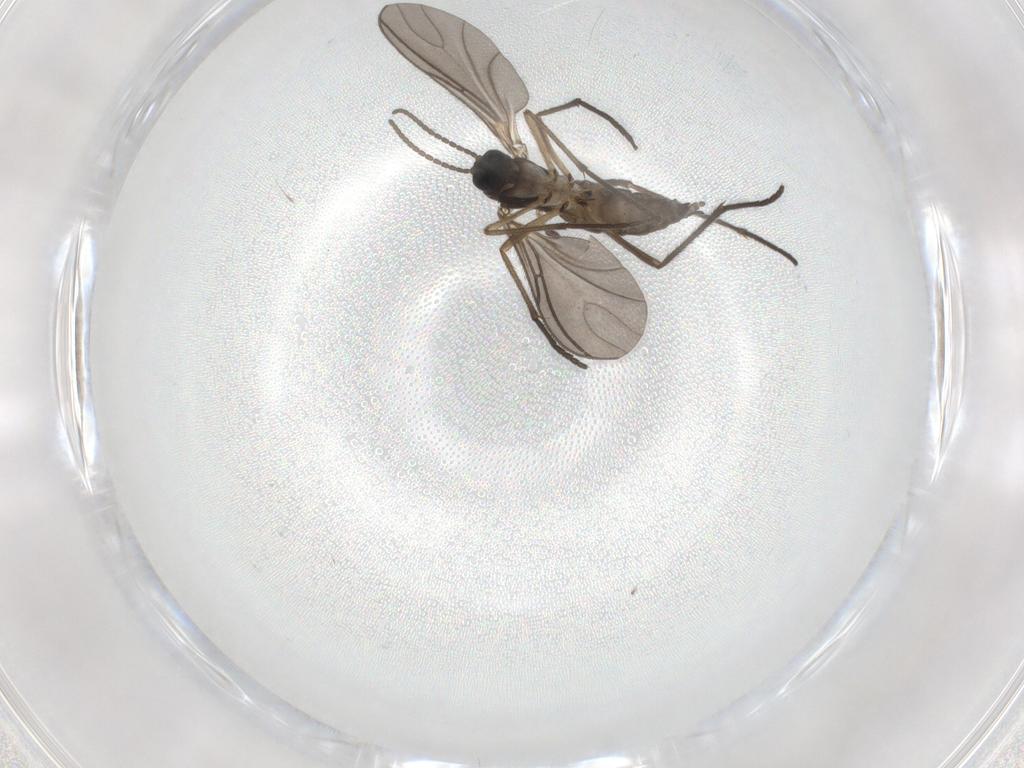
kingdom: Animalia
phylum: Arthropoda
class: Insecta
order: Diptera
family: Sciaridae
